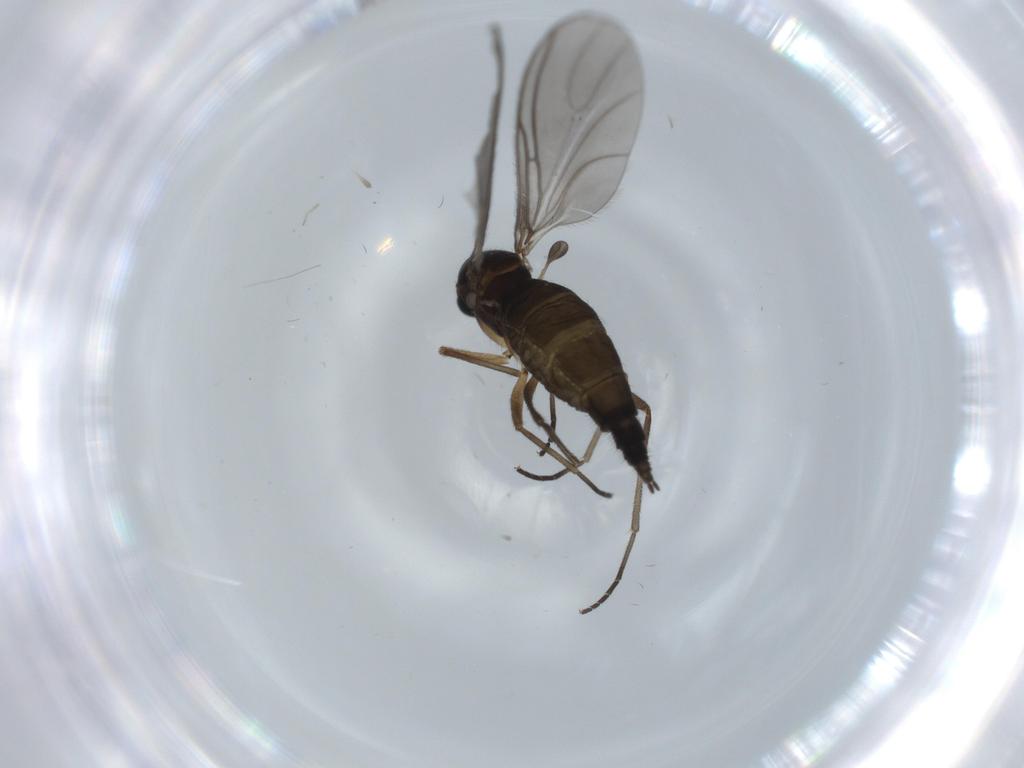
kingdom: Animalia
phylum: Arthropoda
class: Insecta
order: Diptera
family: Sciaridae
